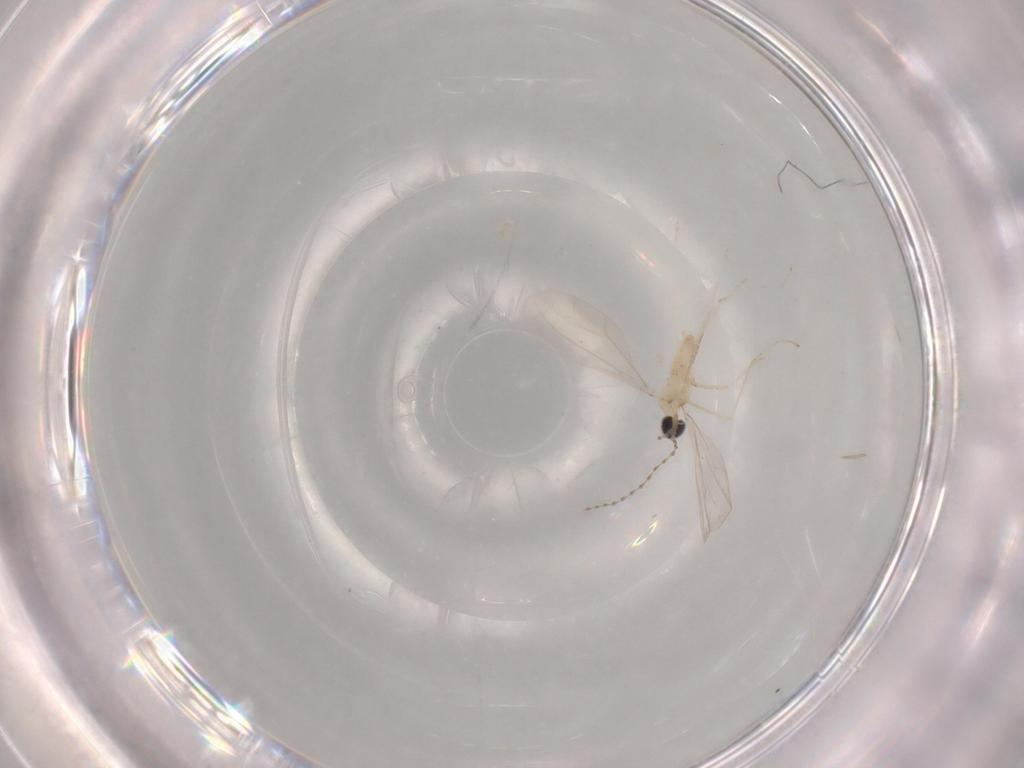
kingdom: Animalia
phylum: Arthropoda
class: Insecta
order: Diptera
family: Cecidomyiidae
